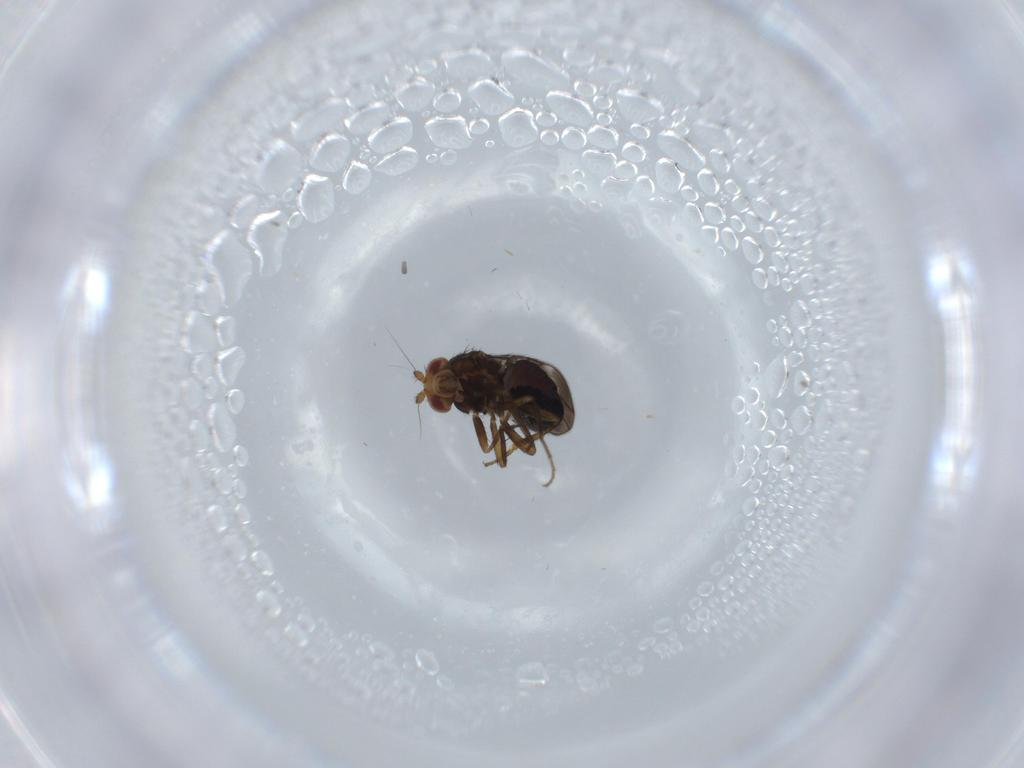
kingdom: Animalia
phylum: Arthropoda
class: Insecta
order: Diptera
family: Sphaeroceridae
